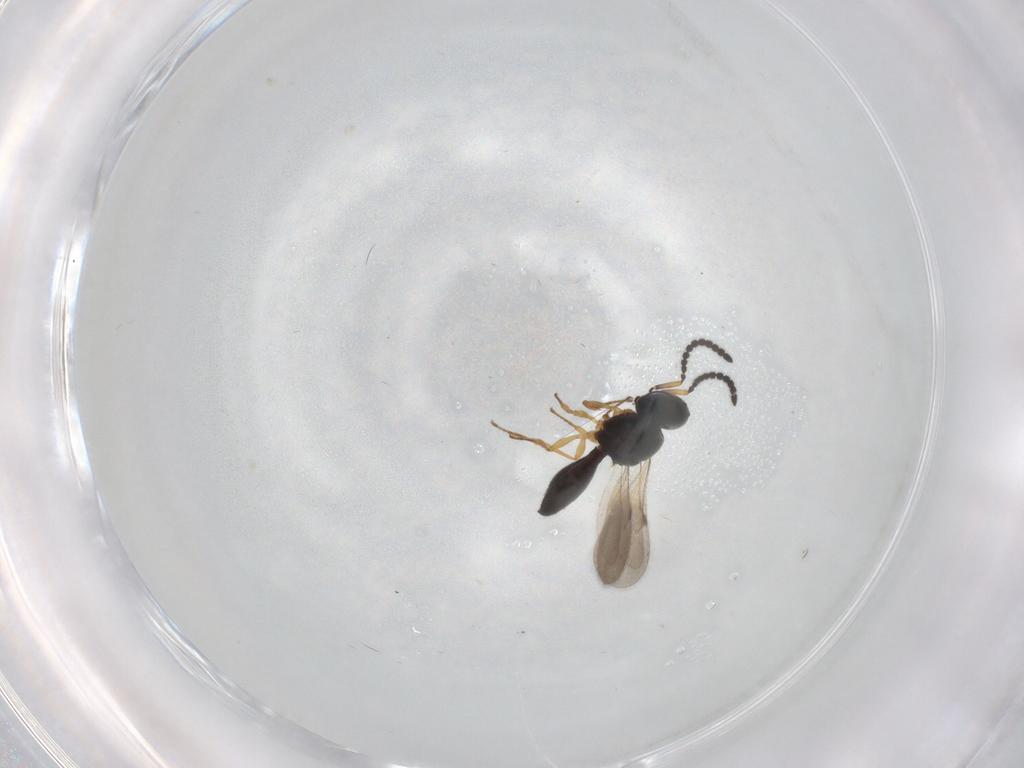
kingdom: Animalia
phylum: Arthropoda
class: Insecta
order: Hymenoptera
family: Scelionidae
